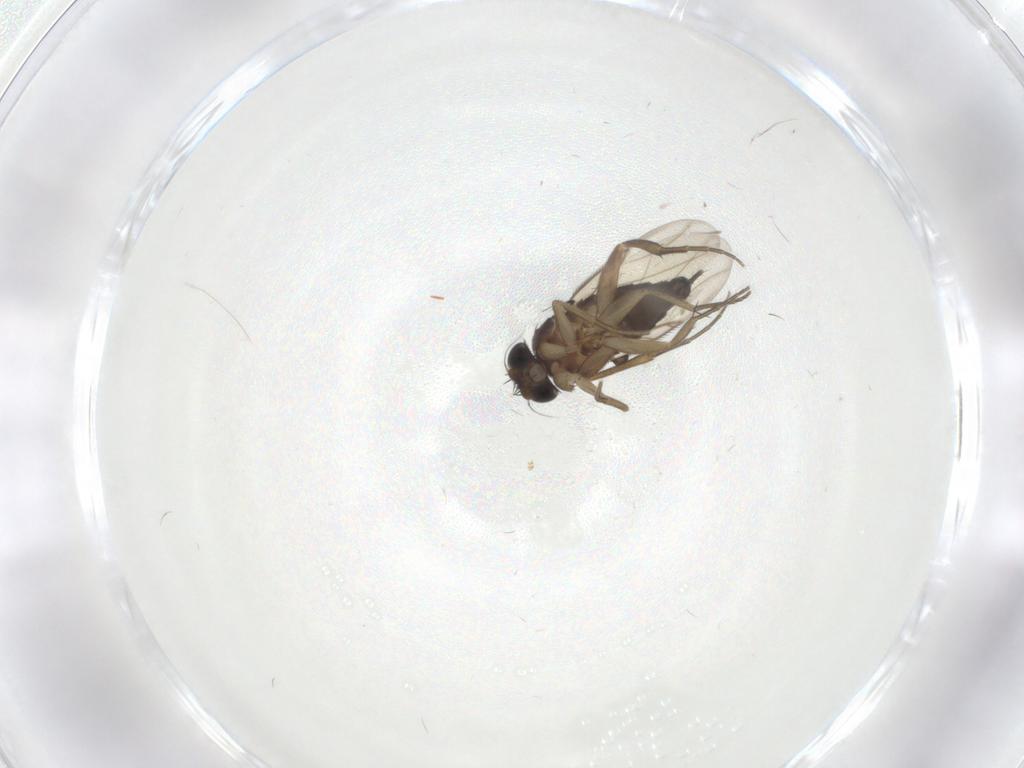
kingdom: Animalia
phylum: Arthropoda
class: Insecta
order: Diptera
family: Phoridae
